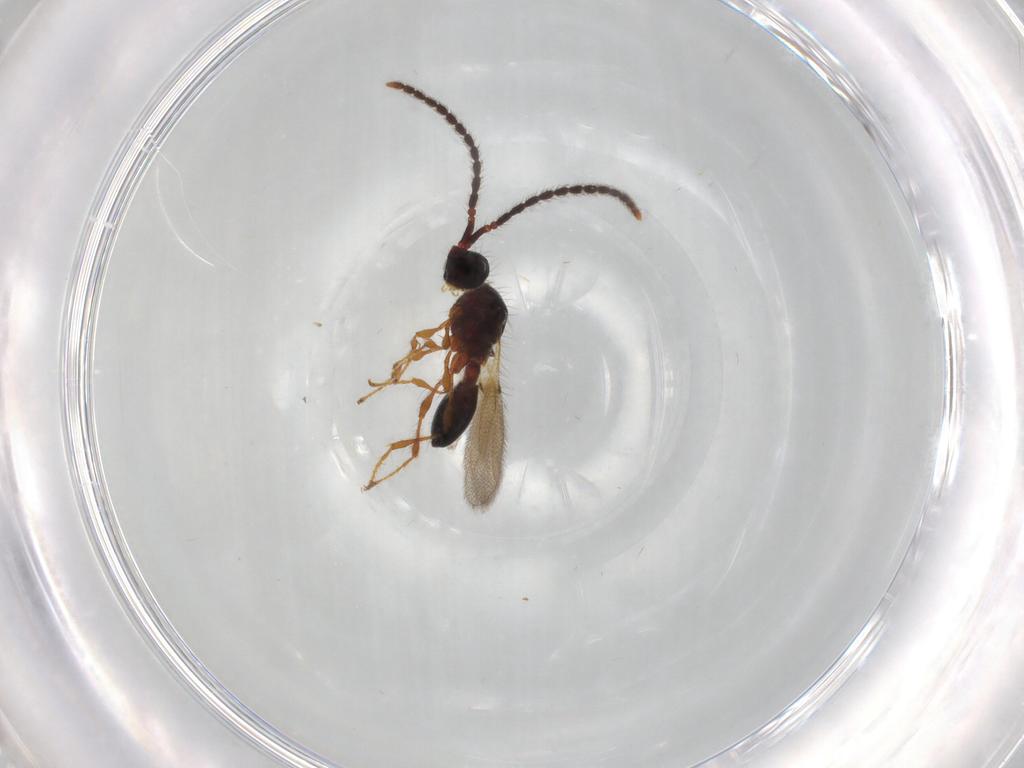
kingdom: Animalia
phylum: Arthropoda
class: Insecta
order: Hymenoptera
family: Diapriidae
